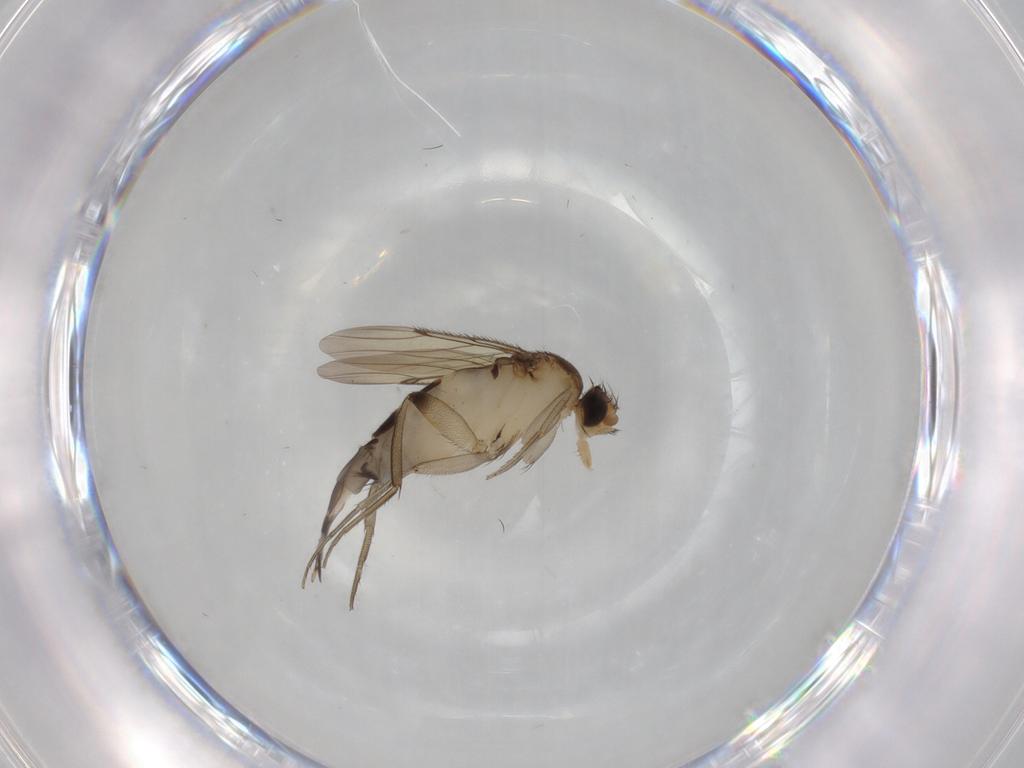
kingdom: Animalia
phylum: Arthropoda
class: Insecta
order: Diptera
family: Phoridae
